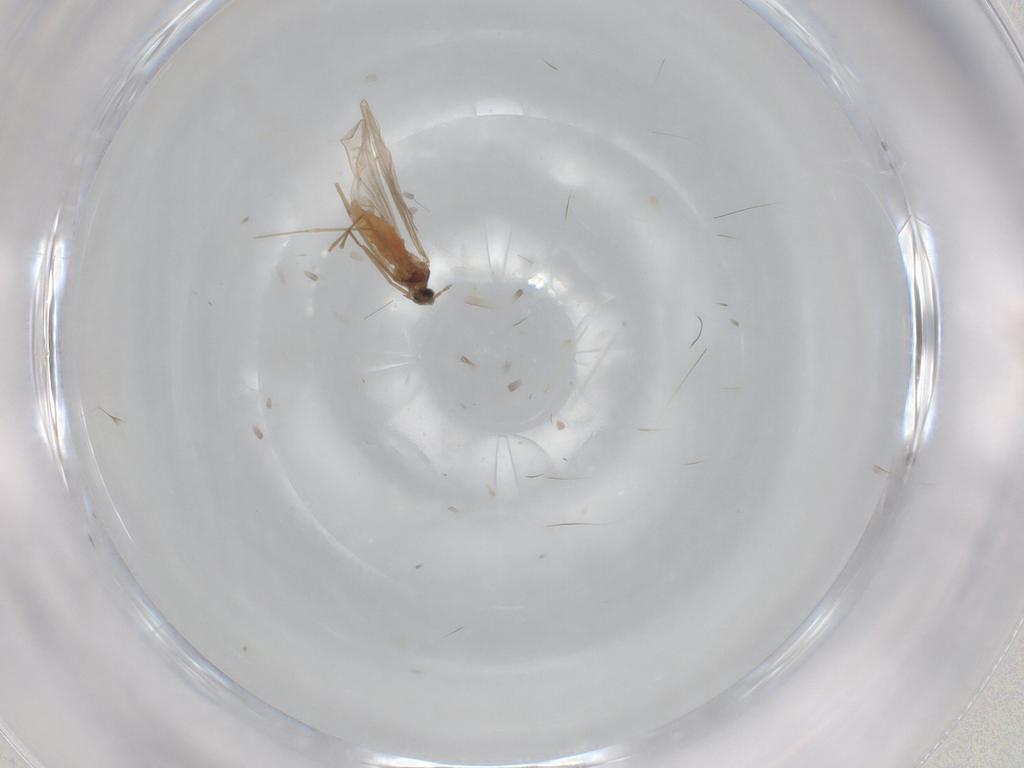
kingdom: Animalia
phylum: Arthropoda
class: Insecta
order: Diptera
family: Cecidomyiidae
